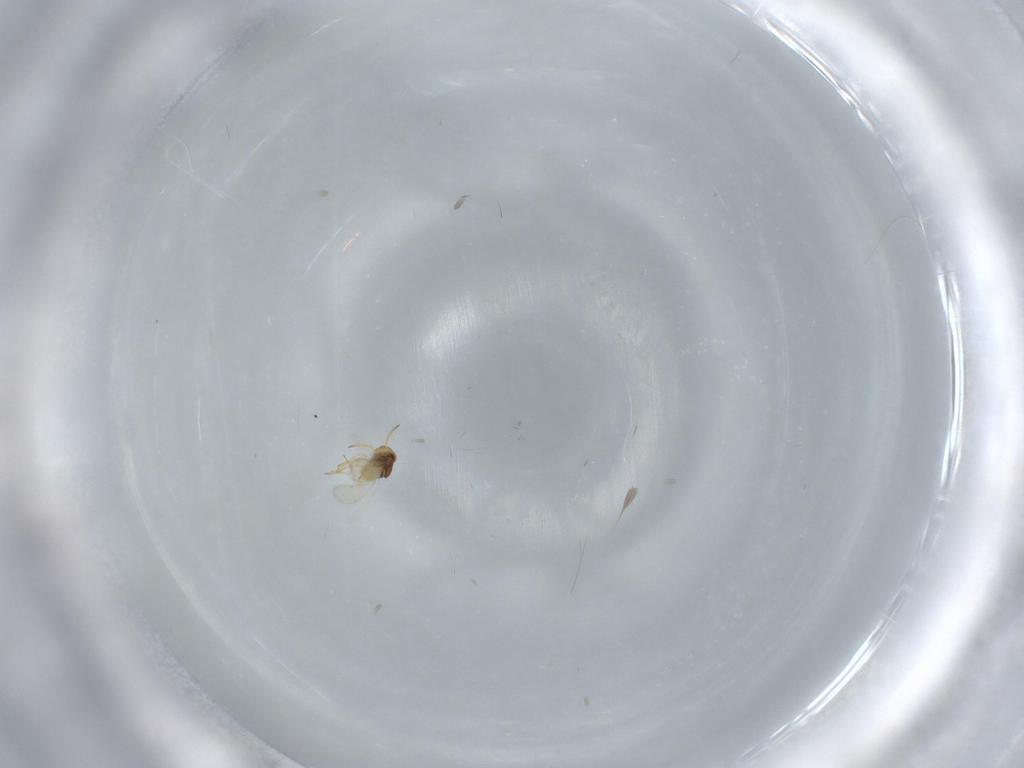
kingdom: Animalia
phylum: Arthropoda
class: Insecta
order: Hymenoptera
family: Aphelinidae
